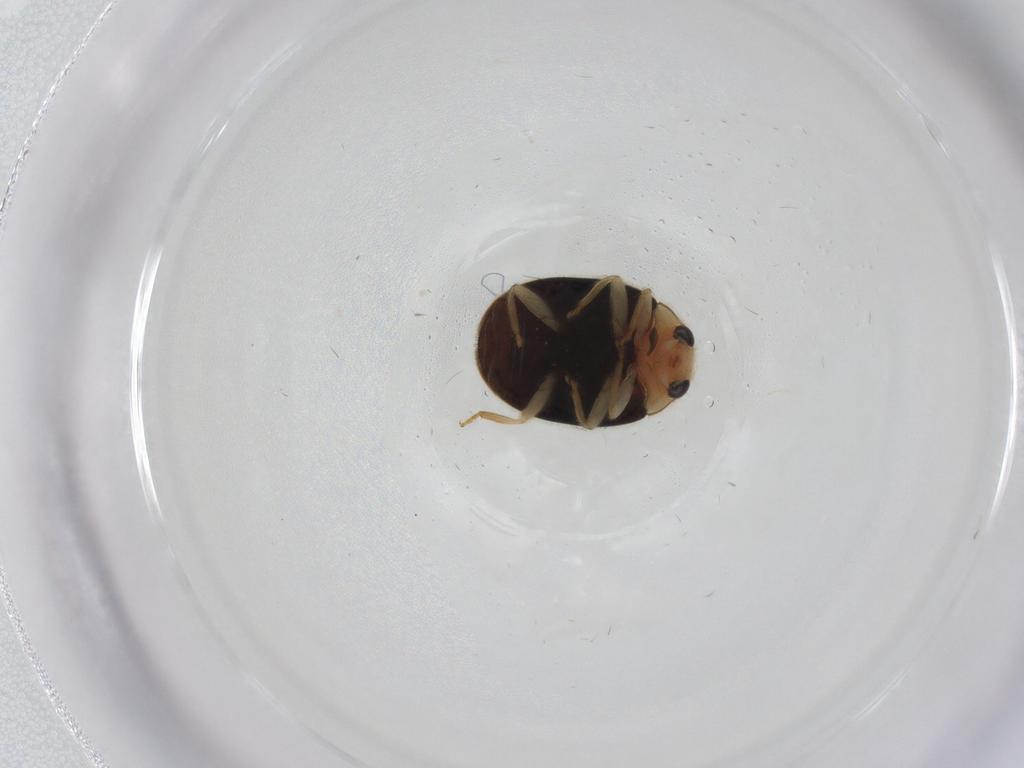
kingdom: Animalia
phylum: Arthropoda
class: Insecta
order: Coleoptera
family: Coccinellidae
